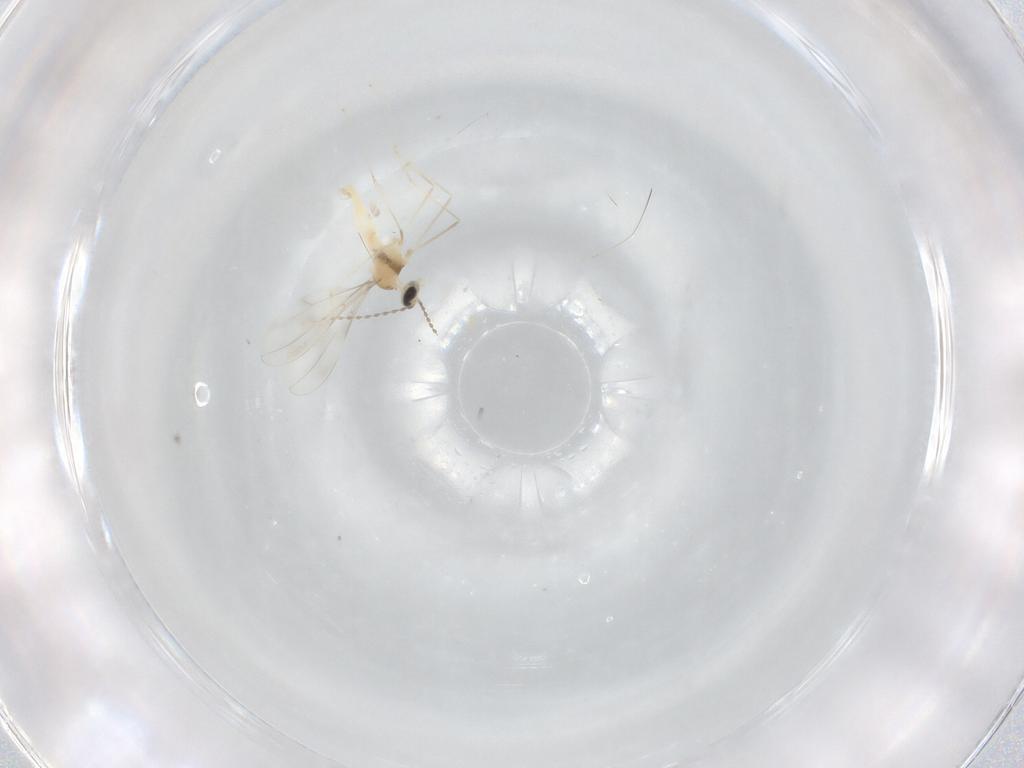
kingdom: Animalia
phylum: Arthropoda
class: Insecta
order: Diptera
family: Cecidomyiidae
